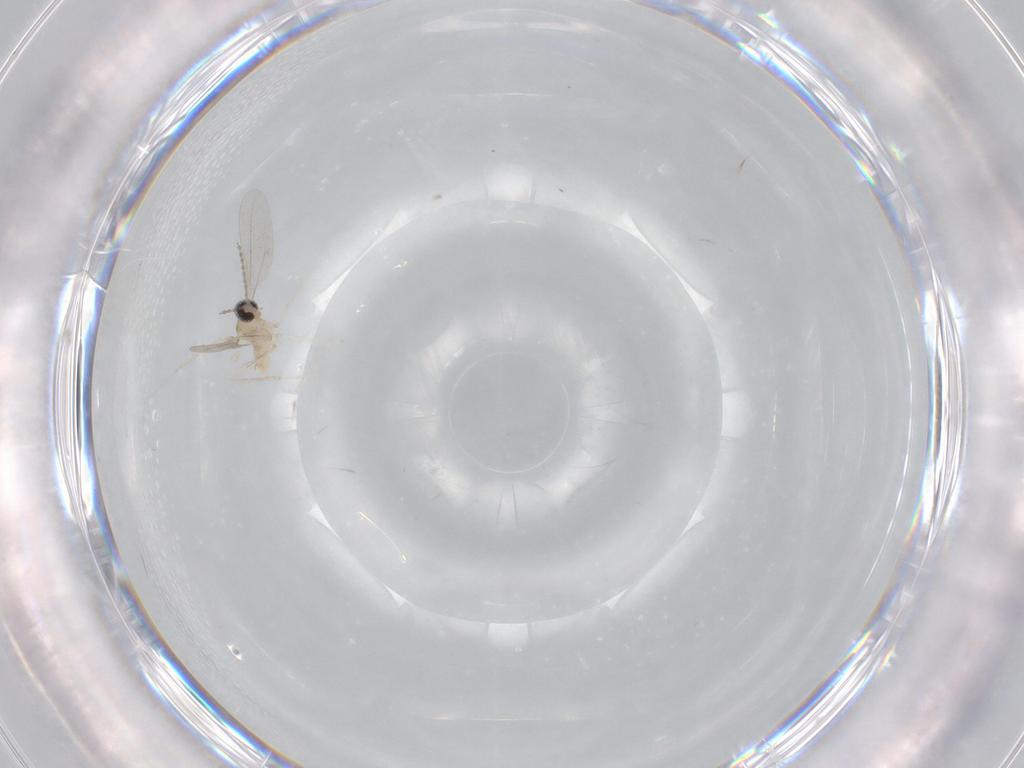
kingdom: Animalia
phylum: Arthropoda
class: Insecta
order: Diptera
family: Cecidomyiidae
